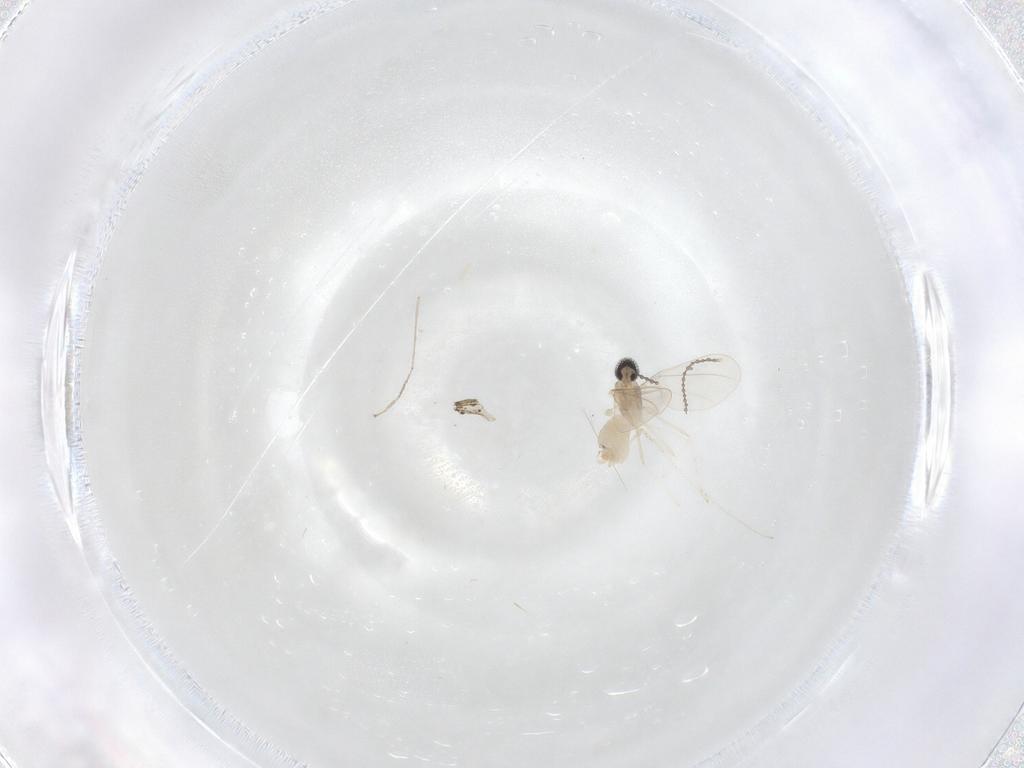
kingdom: Animalia
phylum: Arthropoda
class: Insecta
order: Diptera
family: Cecidomyiidae
